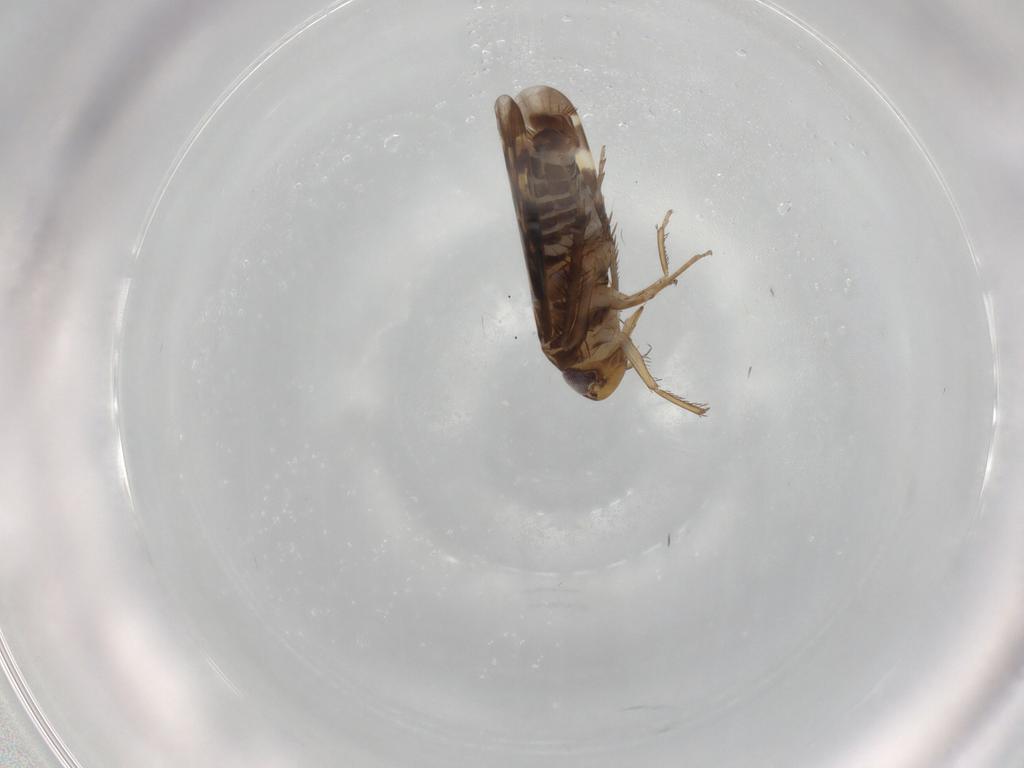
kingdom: Animalia
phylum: Arthropoda
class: Insecta
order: Hemiptera
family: Cicadellidae
